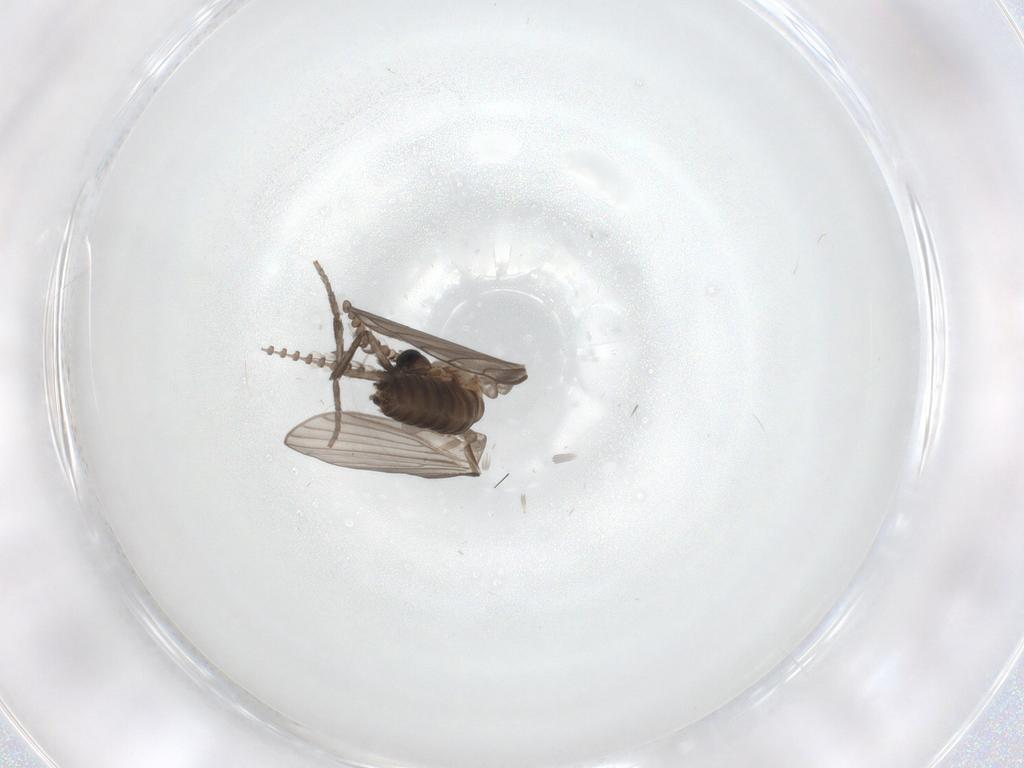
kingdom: Animalia
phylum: Arthropoda
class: Insecta
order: Diptera
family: Psychodidae
